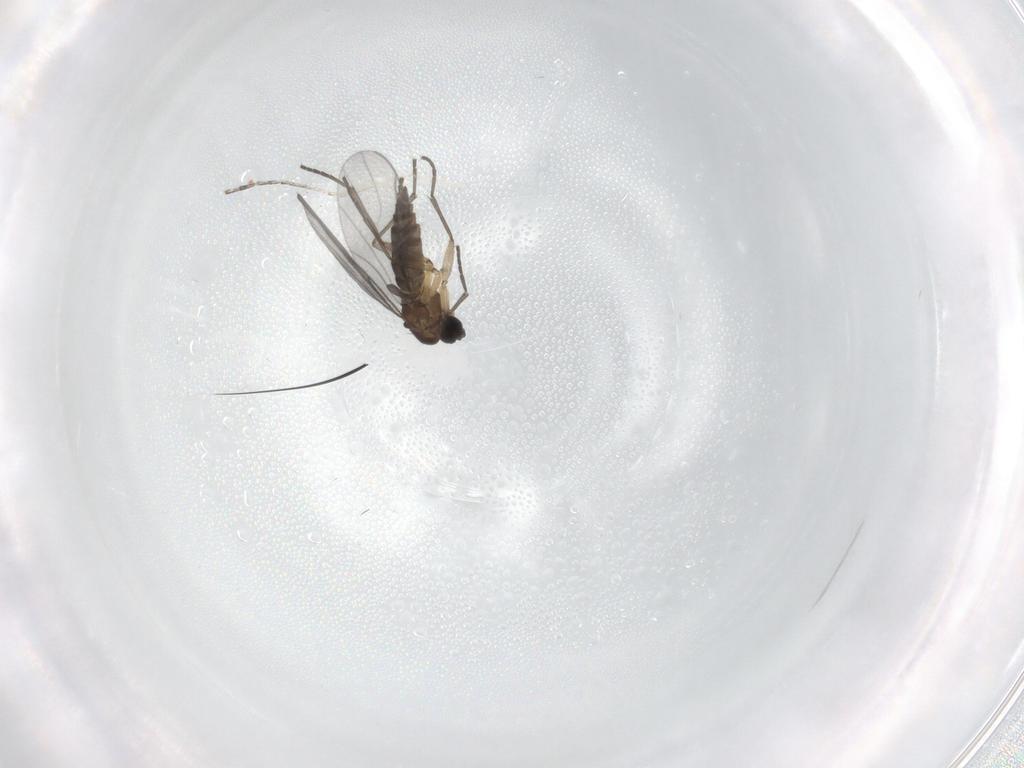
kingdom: Animalia
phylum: Arthropoda
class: Insecta
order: Diptera
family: Sciaridae
